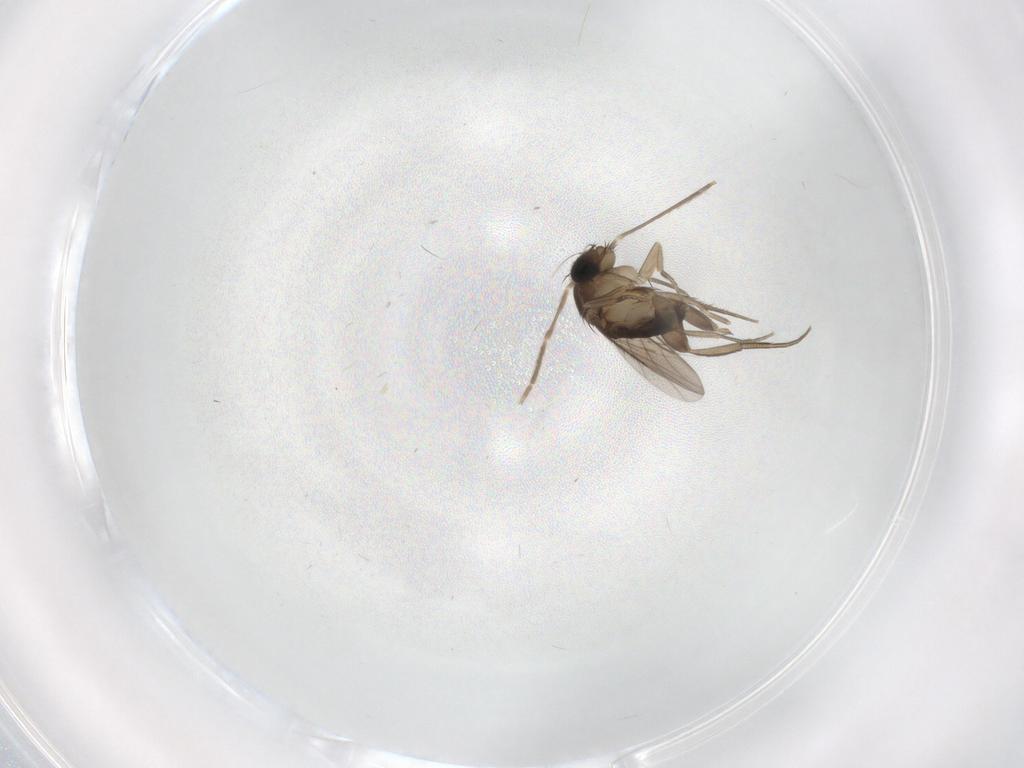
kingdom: Animalia
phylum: Arthropoda
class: Insecta
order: Diptera
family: Phoridae
